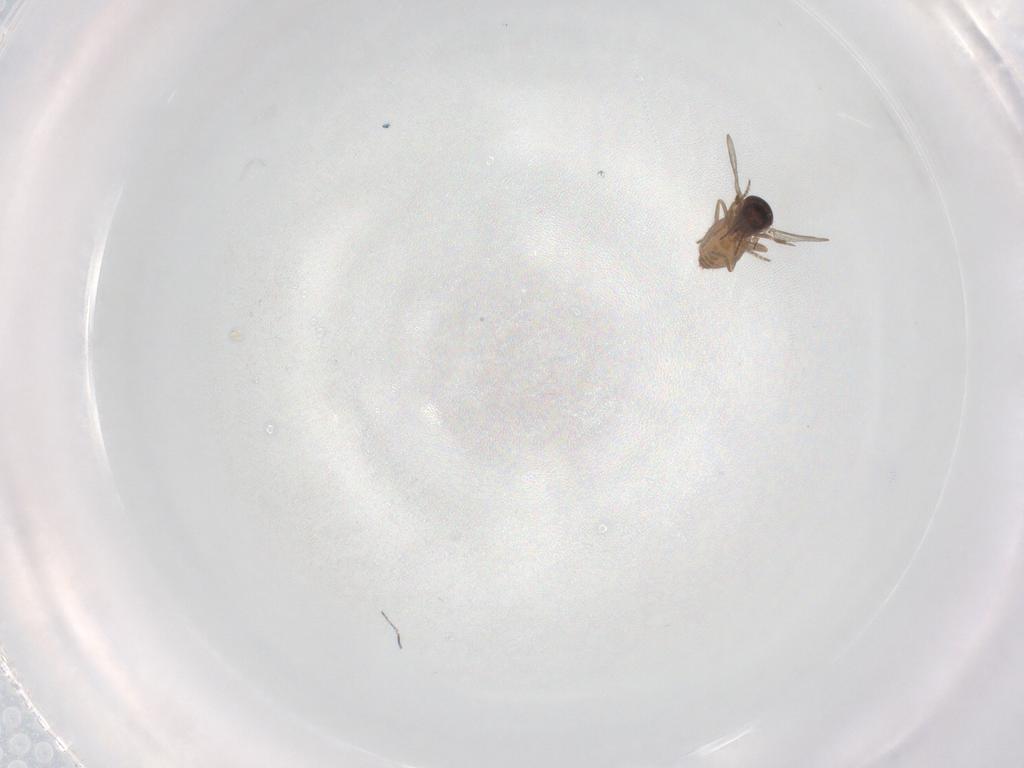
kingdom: Animalia
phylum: Arthropoda
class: Insecta
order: Diptera
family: Ceratopogonidae
